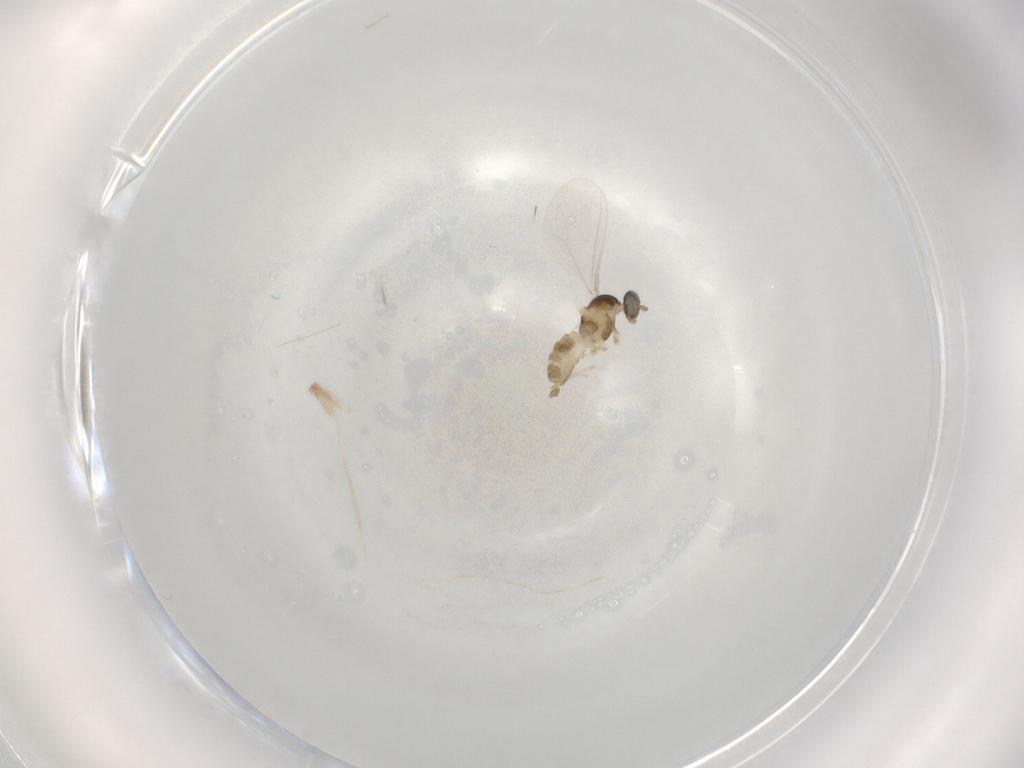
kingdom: Animalia
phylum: Arthropoda
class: Insecta
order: Diptera
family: Cecidomyiidae
